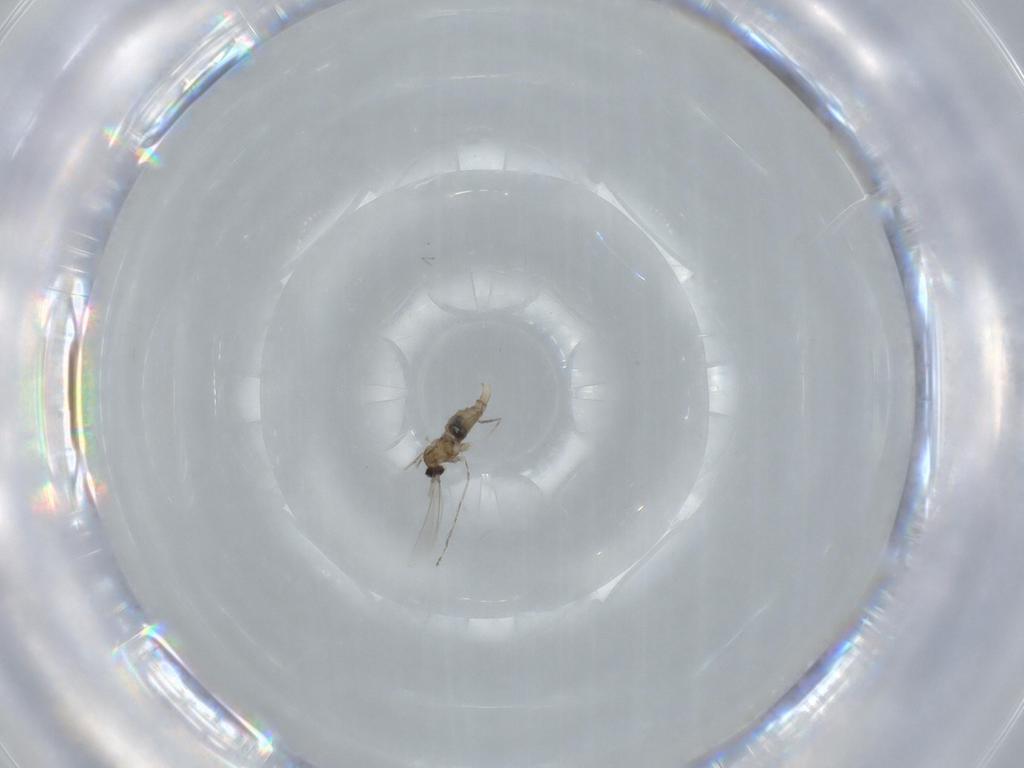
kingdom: Animalia
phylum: Arthropoda
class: Insecta
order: Diptera
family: Cecidomyiidae
